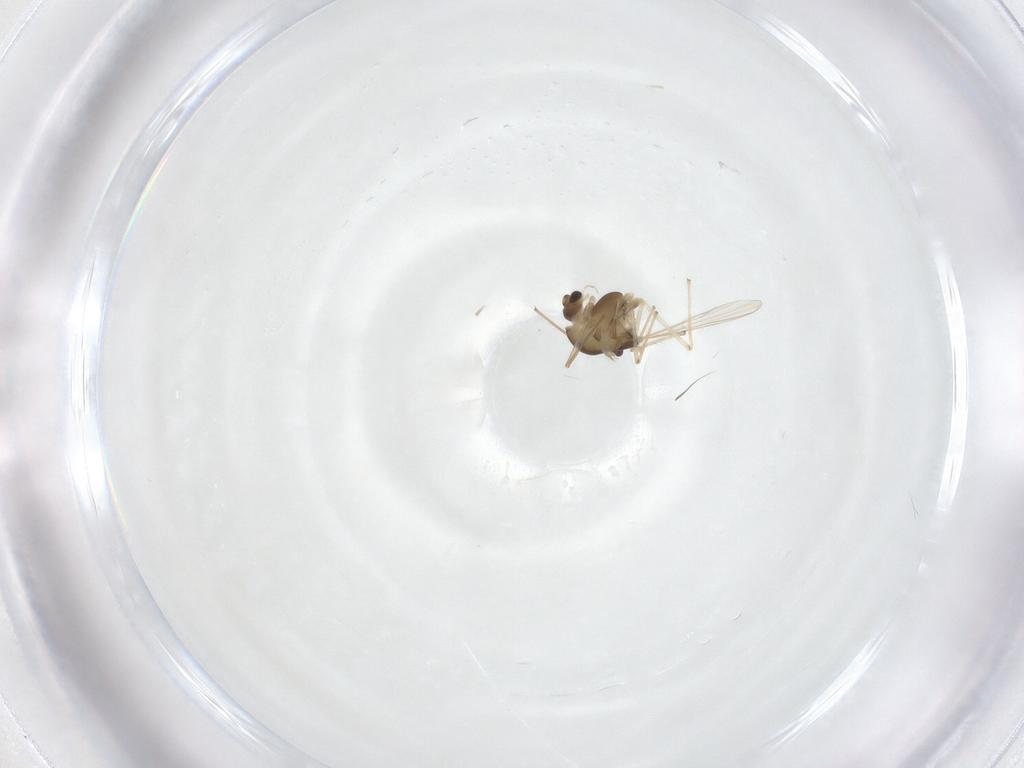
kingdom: Animalia
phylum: Arthropoda
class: Insecta
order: Diptera
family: Chironomidae
